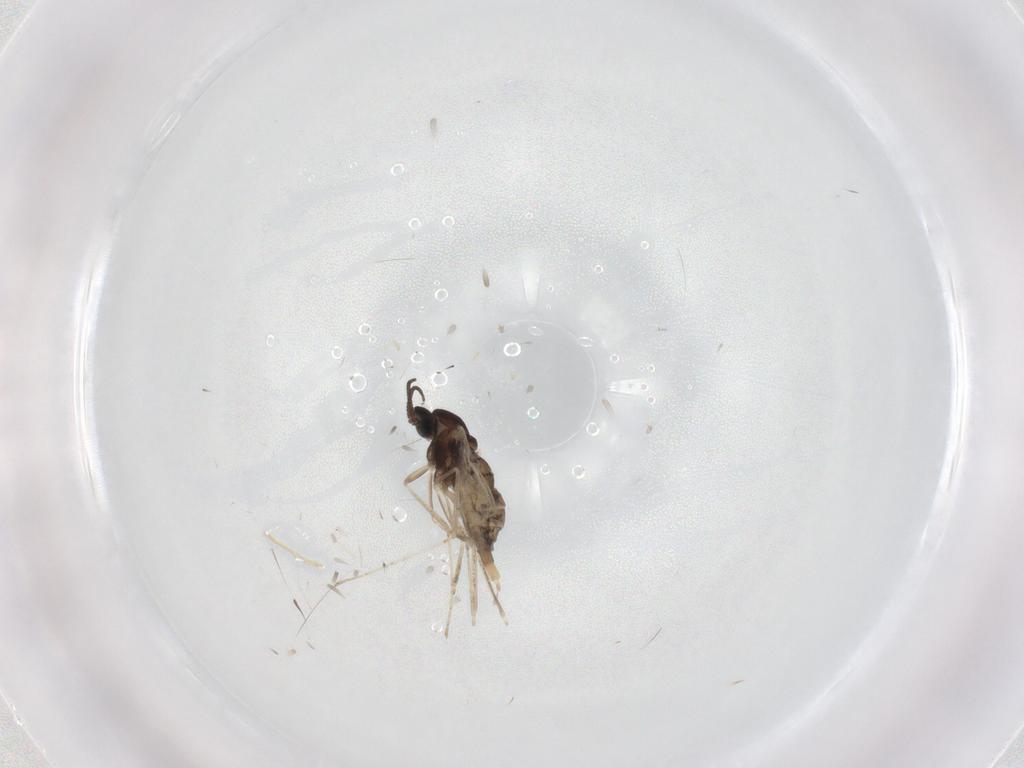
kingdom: Animalia
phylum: Arthropoda
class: Insecta
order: Diptera
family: Cecidomyiidae
